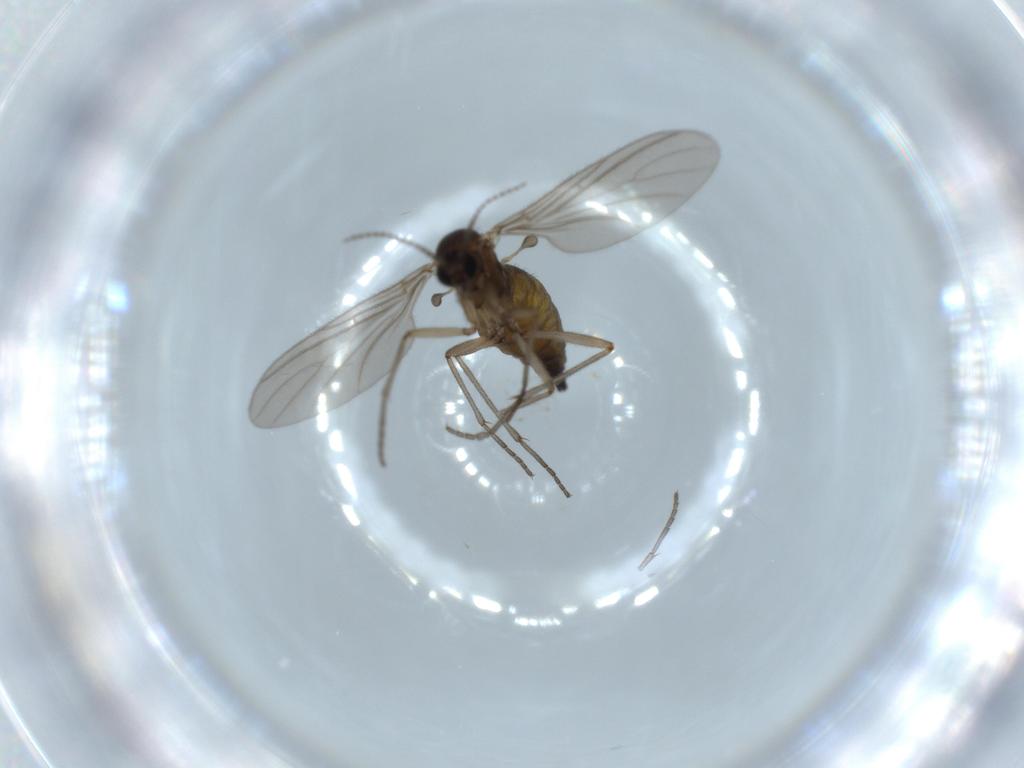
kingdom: Animalia
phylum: Arthropoda
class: Insecta
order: Diptera
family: Sciaridae
